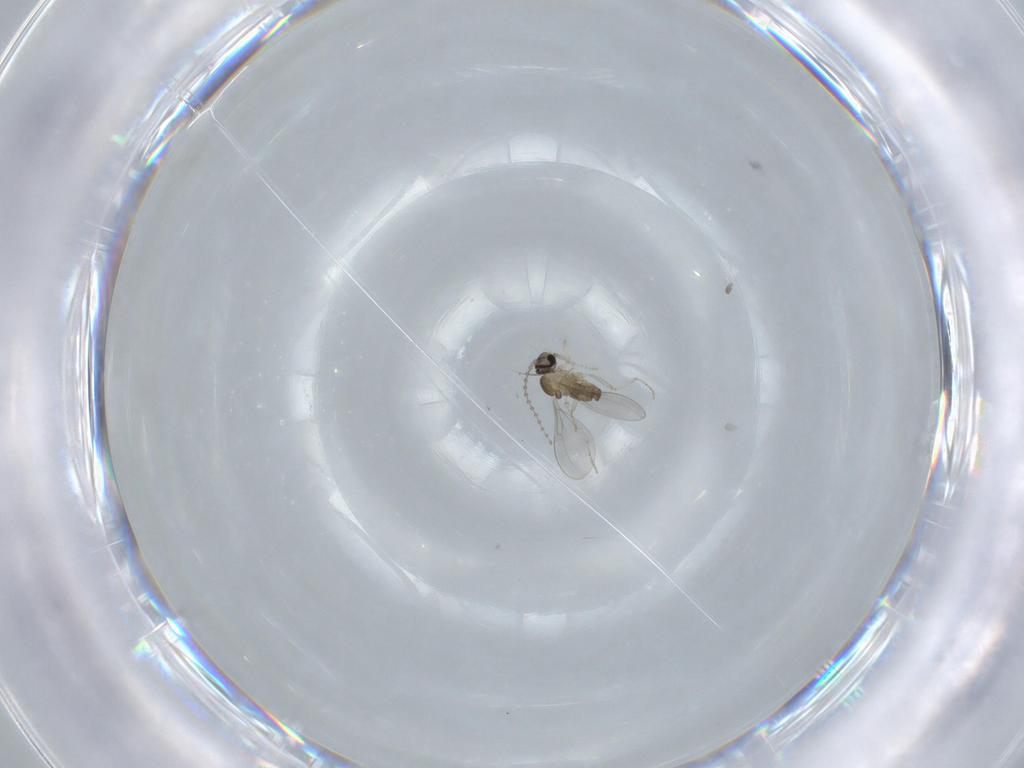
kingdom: Animalia
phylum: Arthropoda
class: Insecta
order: Diptera
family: Cecidomyiidae
